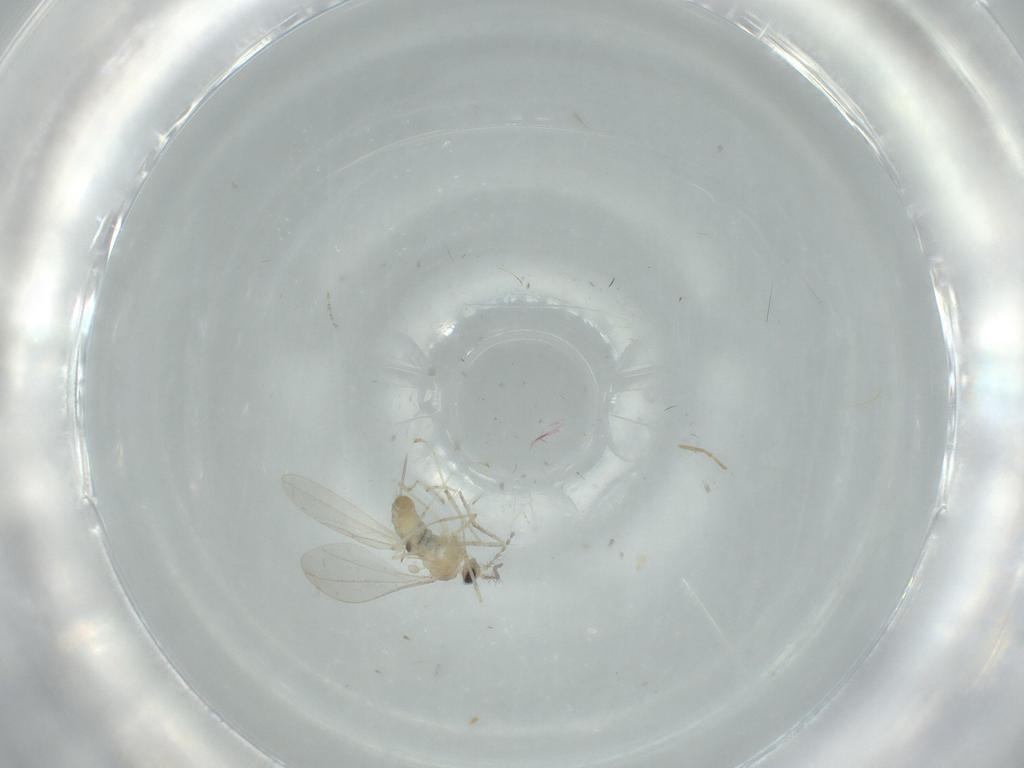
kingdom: Animalia
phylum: Arthropoda
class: Insecta
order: Diptera
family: Chironomidae
